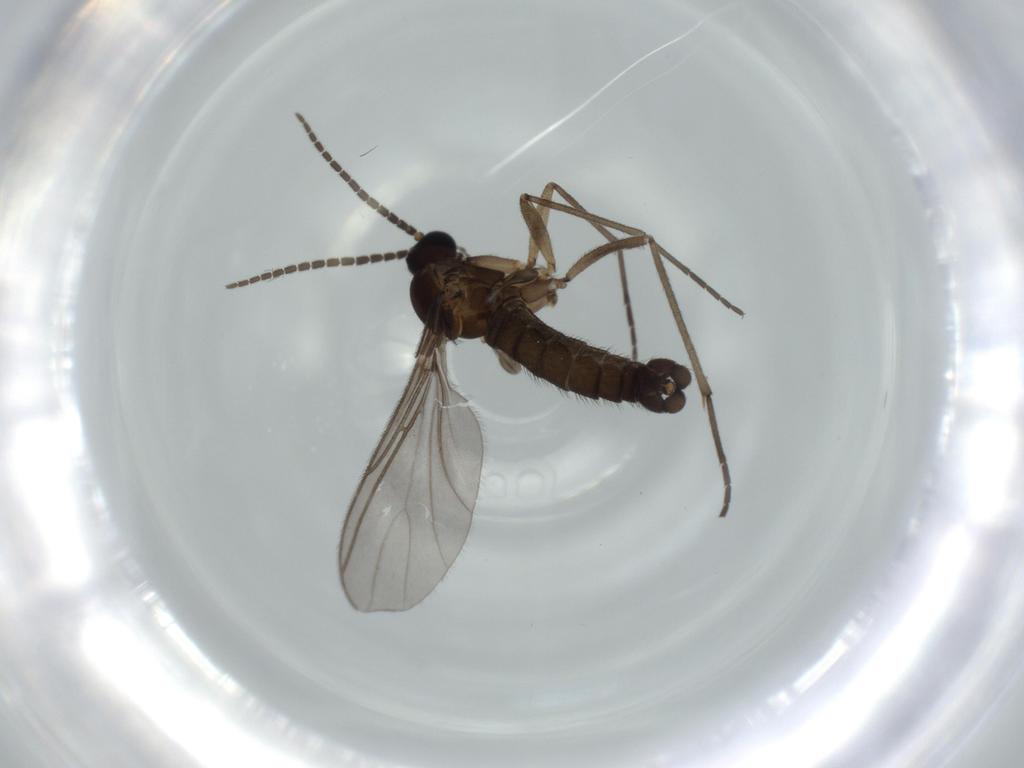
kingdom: Animalia
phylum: Arthropoda
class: Insecta
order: Diptera
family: Sciaridae
